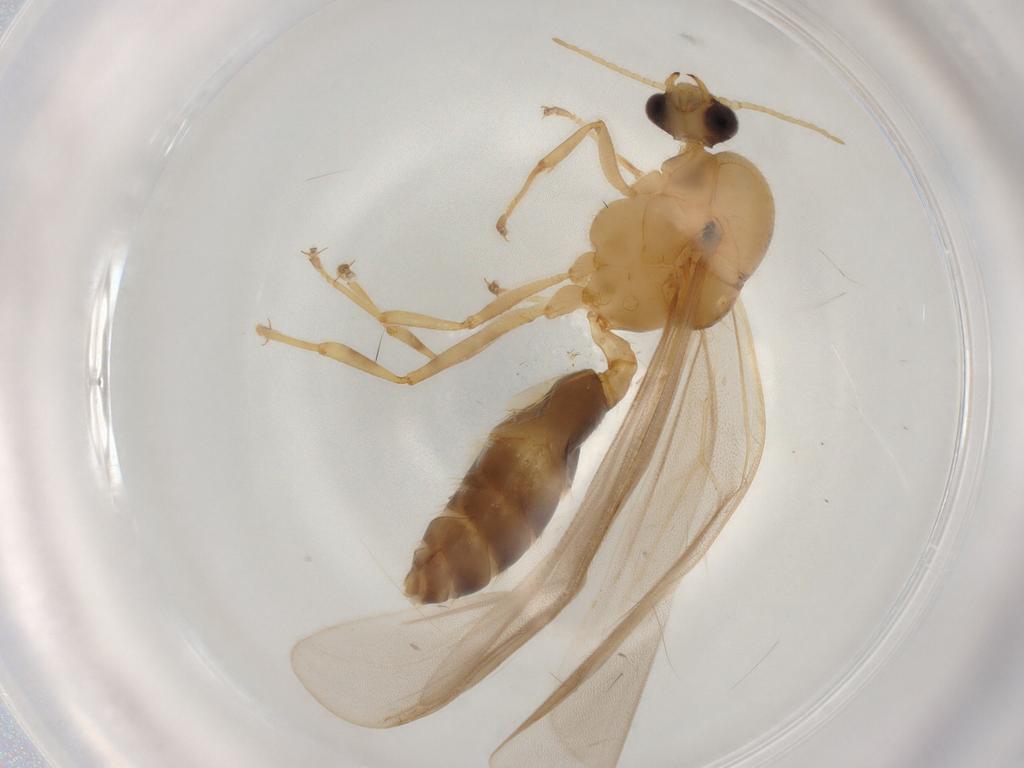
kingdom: Animalia
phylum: Arthropoda
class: Insecta
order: Hymenoptera
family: Formicidae
